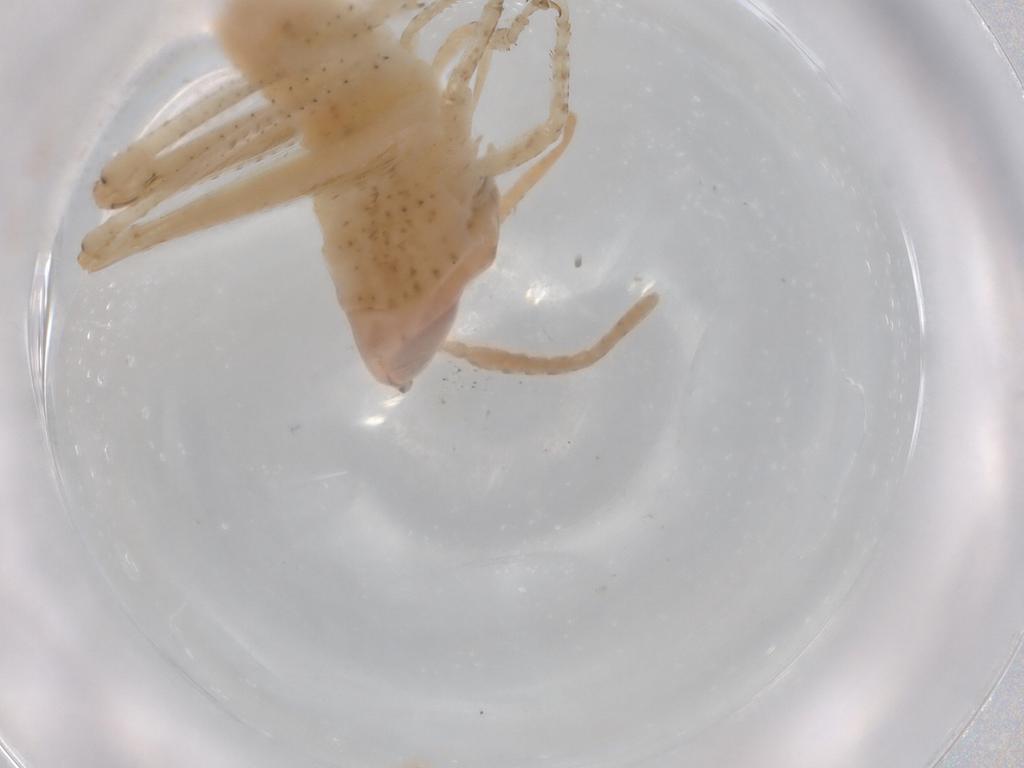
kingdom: Animalia
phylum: Arthropoda
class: Insecta
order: Orthoptera
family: Acrididae
